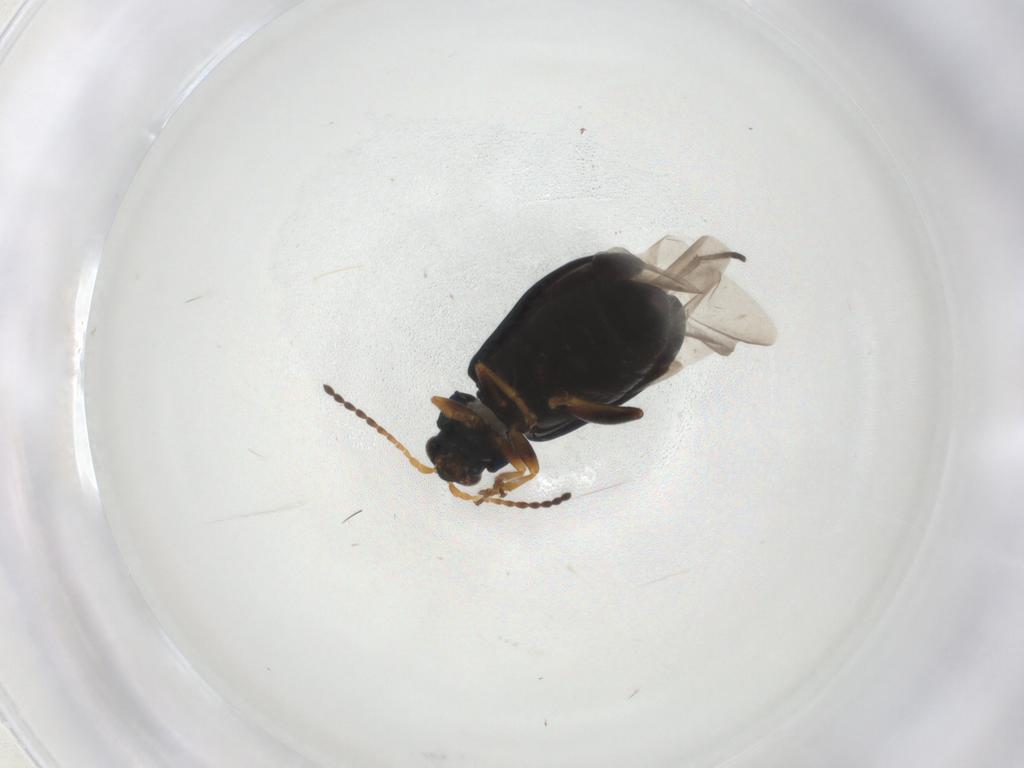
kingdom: Animalia
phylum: Arthropoda
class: Insecta
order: Coleoptera
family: Chrysomelidae
